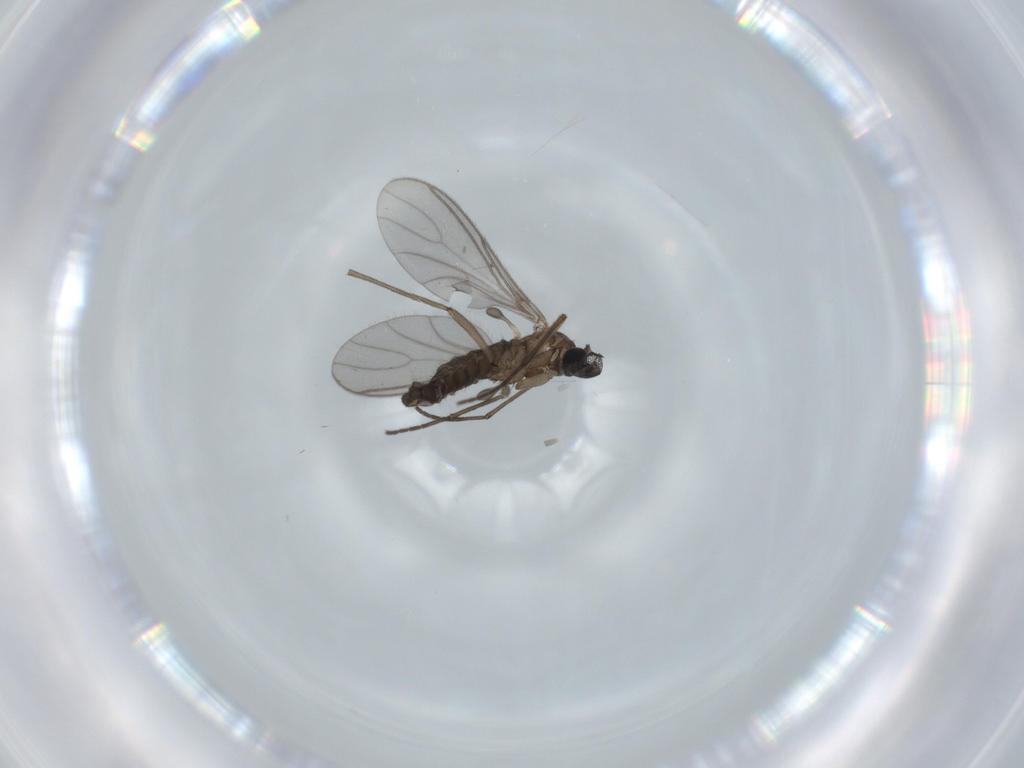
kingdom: Animalia
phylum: Arthropoda
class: Insecta
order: Diptera
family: Sciaridae
